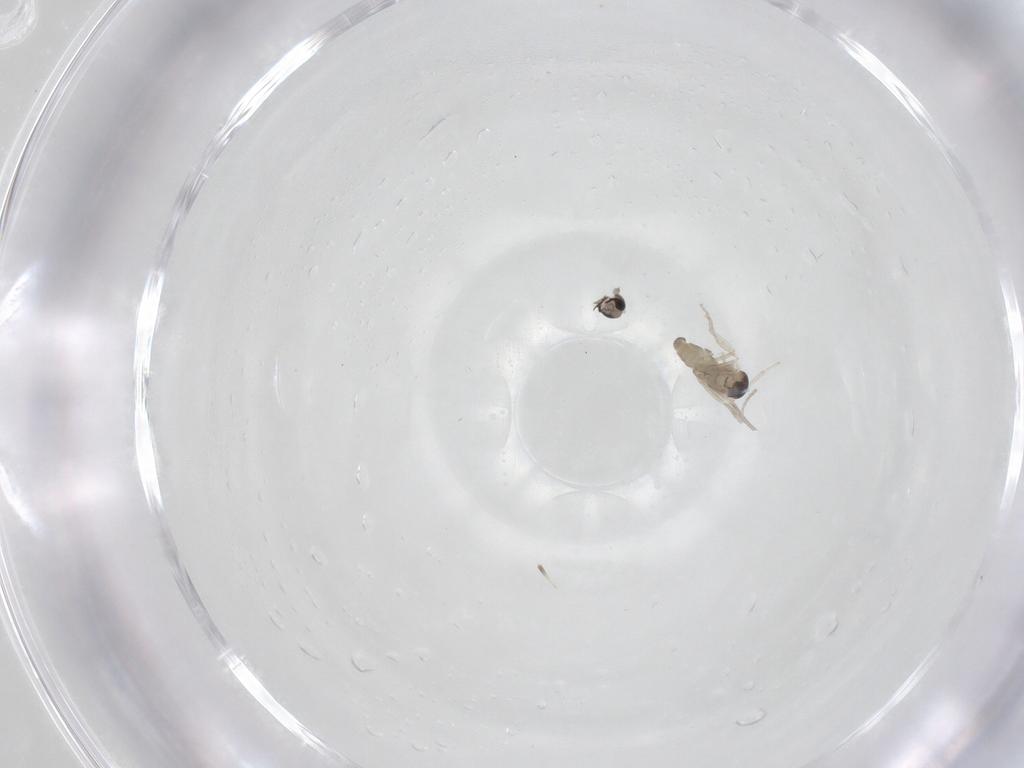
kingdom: Animalia
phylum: Arthropoda
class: Insecta
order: Diptera
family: Cecidomyiidae
